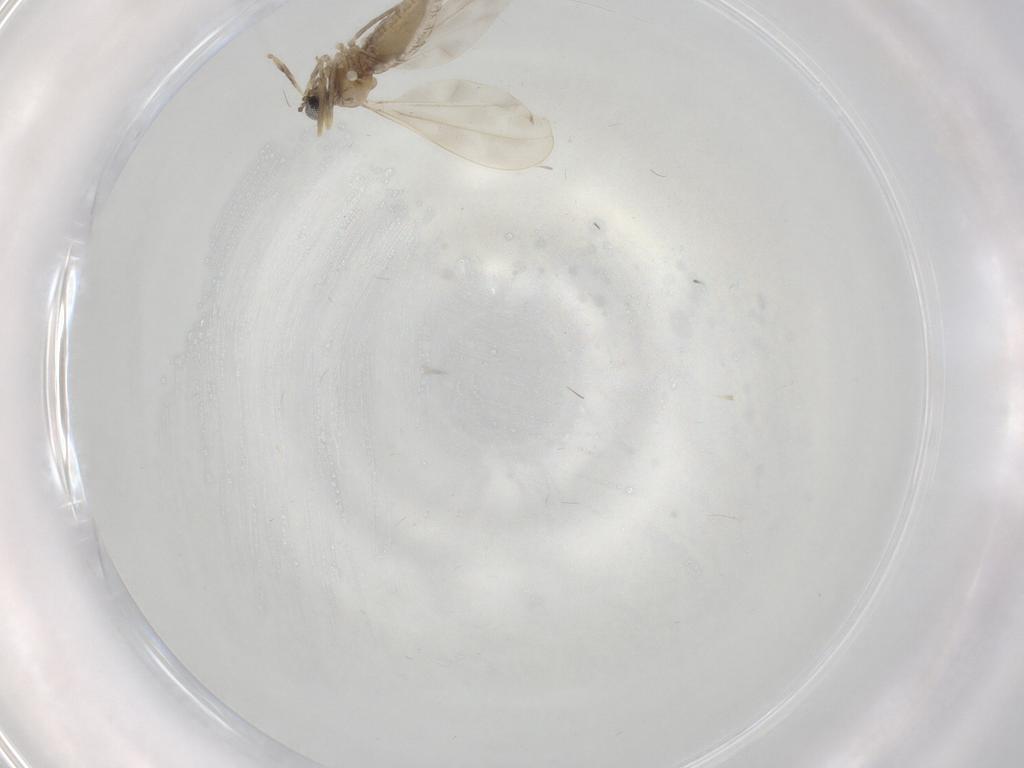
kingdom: Animalia
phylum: Arthropoda
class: Insecta
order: Diptera
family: Cecidomyiidae
